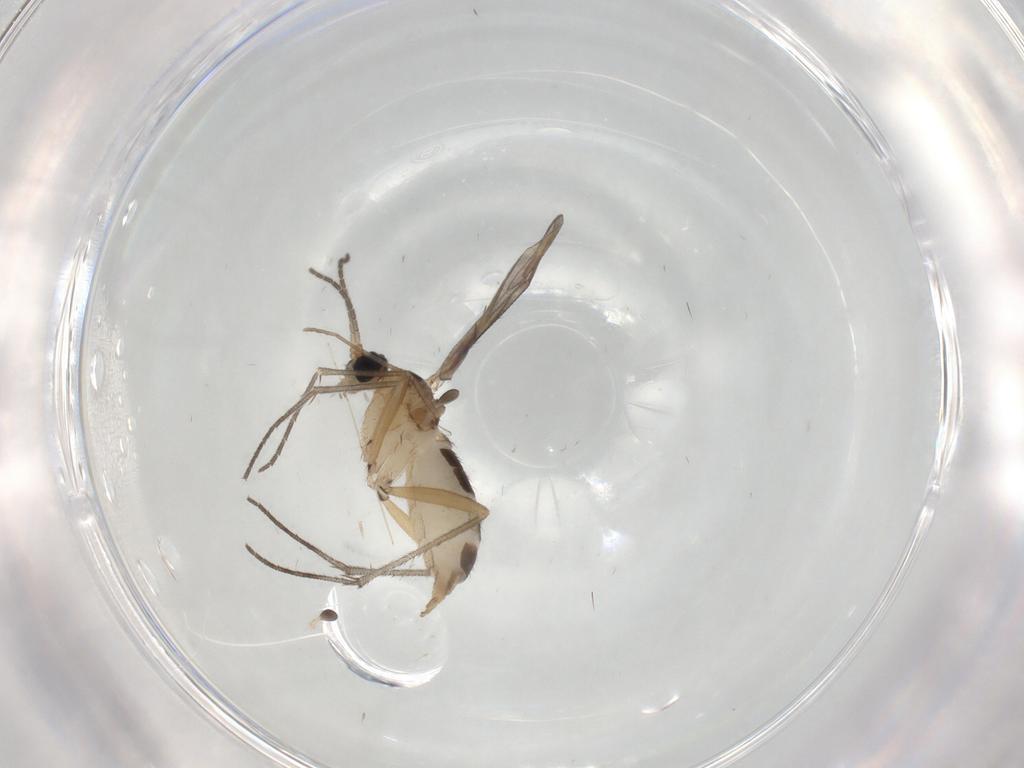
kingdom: Animalia
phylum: Arthropoda
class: Insecta
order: Diptera
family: Sciaridae
